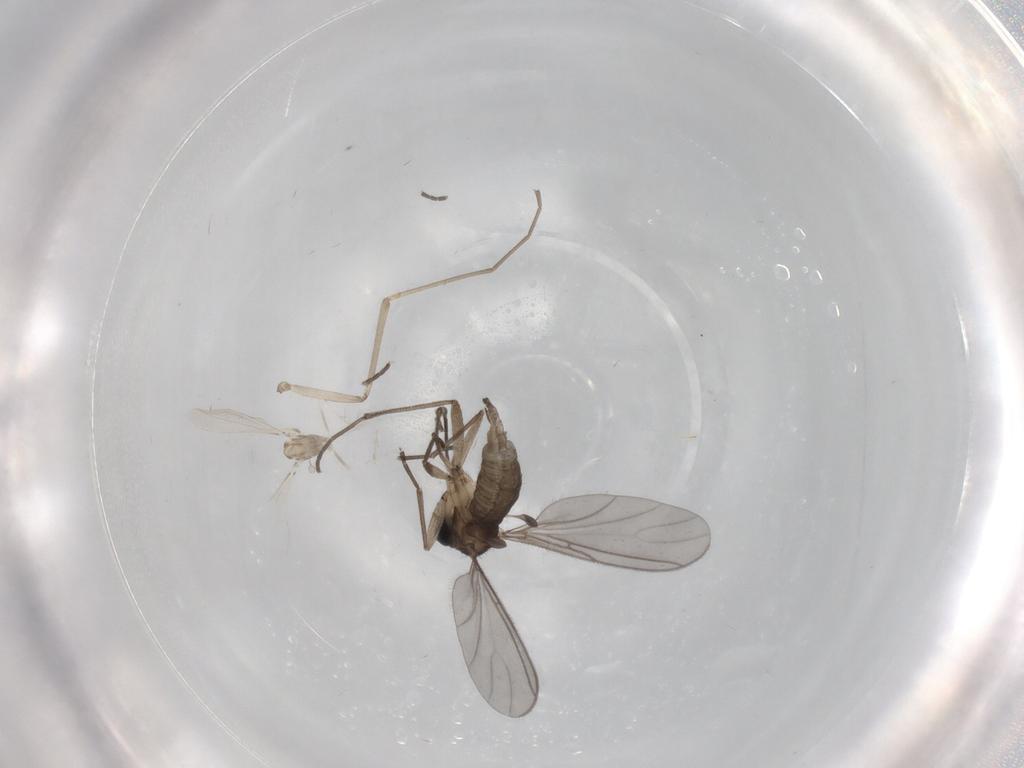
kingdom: Animalia
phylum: Arthropoda
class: Insecta
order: Diptera
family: Cecidomyiidae
